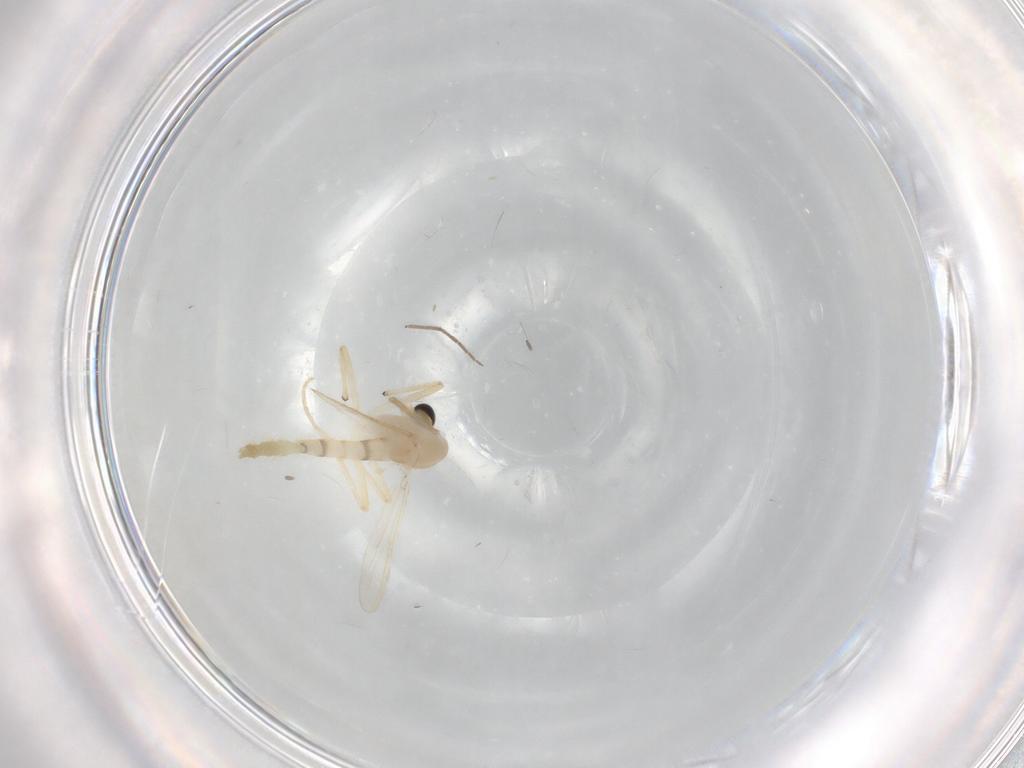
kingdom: Animalia
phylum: Arthropoda
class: Insecta
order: Diptera
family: Chironomidae
